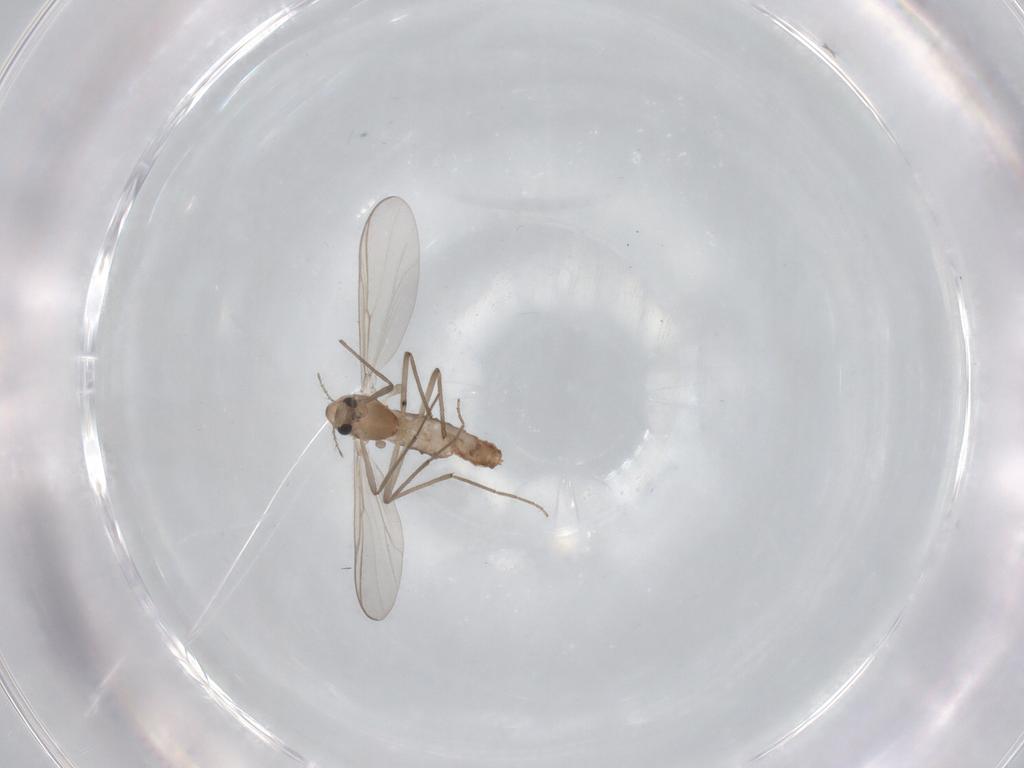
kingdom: Animalia
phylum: Arthropoda
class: Insecta
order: Diptera
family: Chironomidae
